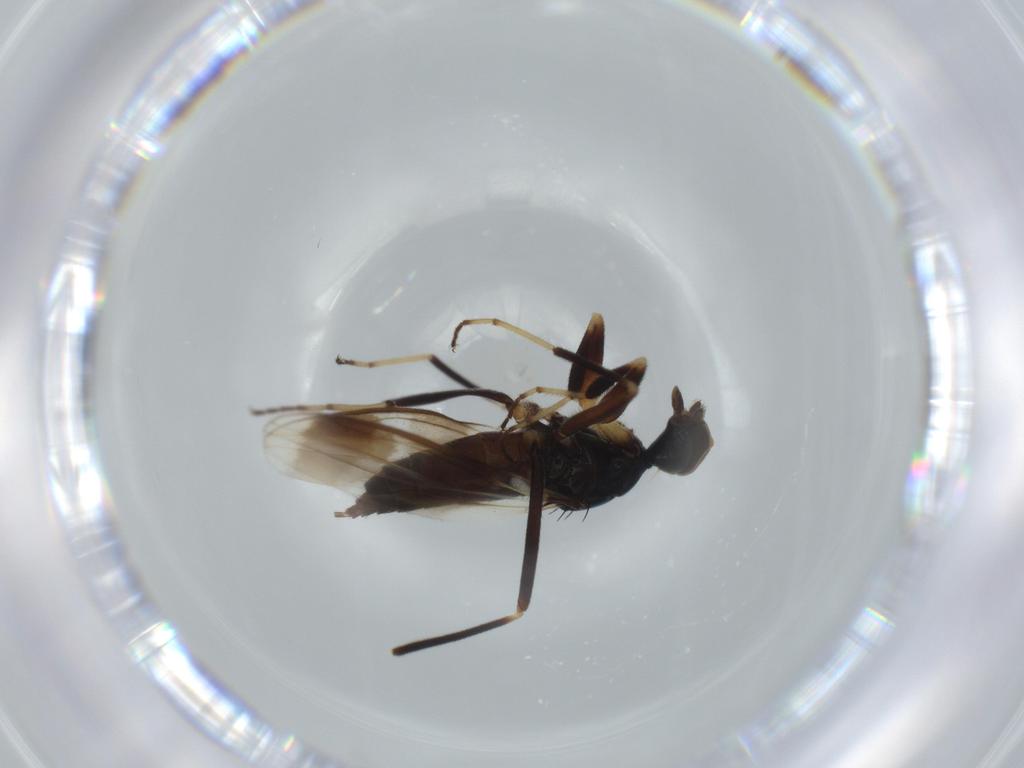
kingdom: Animalia
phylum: Arthropoda
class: Insecta
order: Diptera
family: Hybotidae
